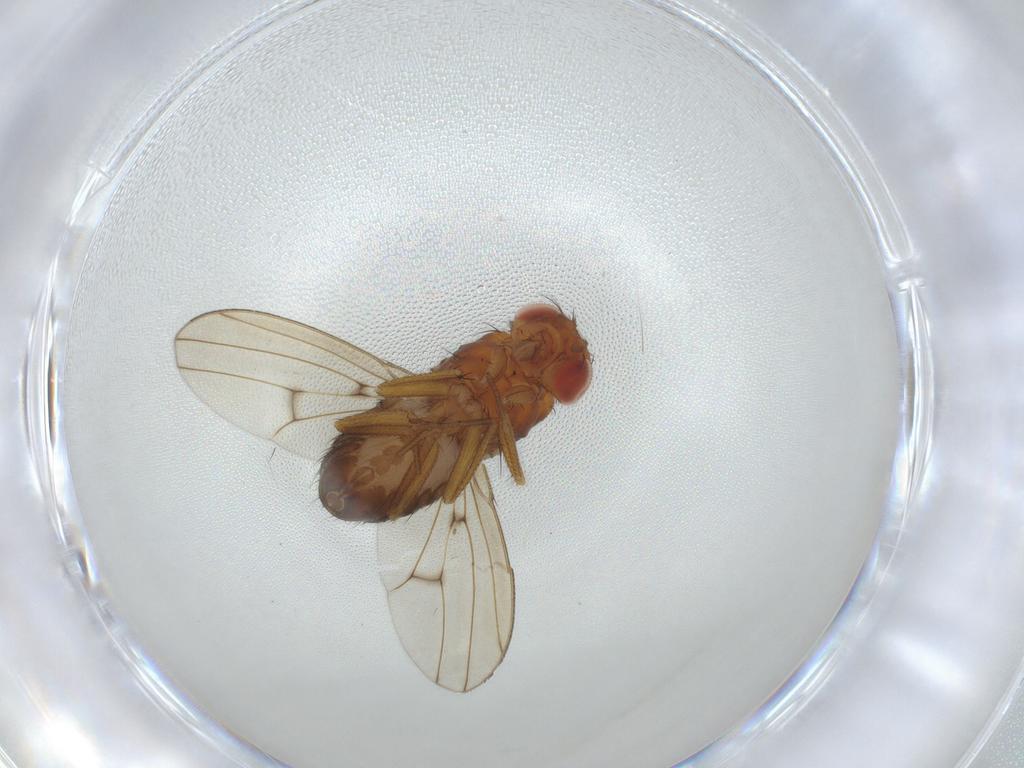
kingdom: Animalia
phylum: Arthropoda
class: Insecta
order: Diptera
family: Drosophilidae
